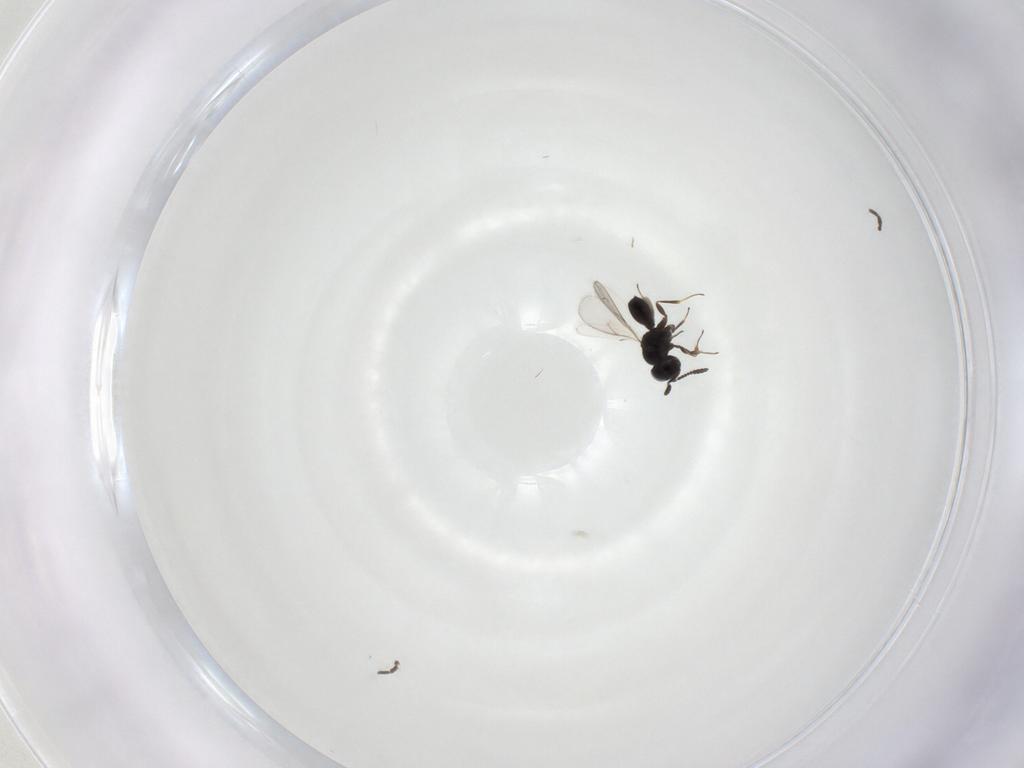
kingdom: Animalia
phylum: Arthropoda
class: Insecta
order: Hymenoptera
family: Scelionidae
